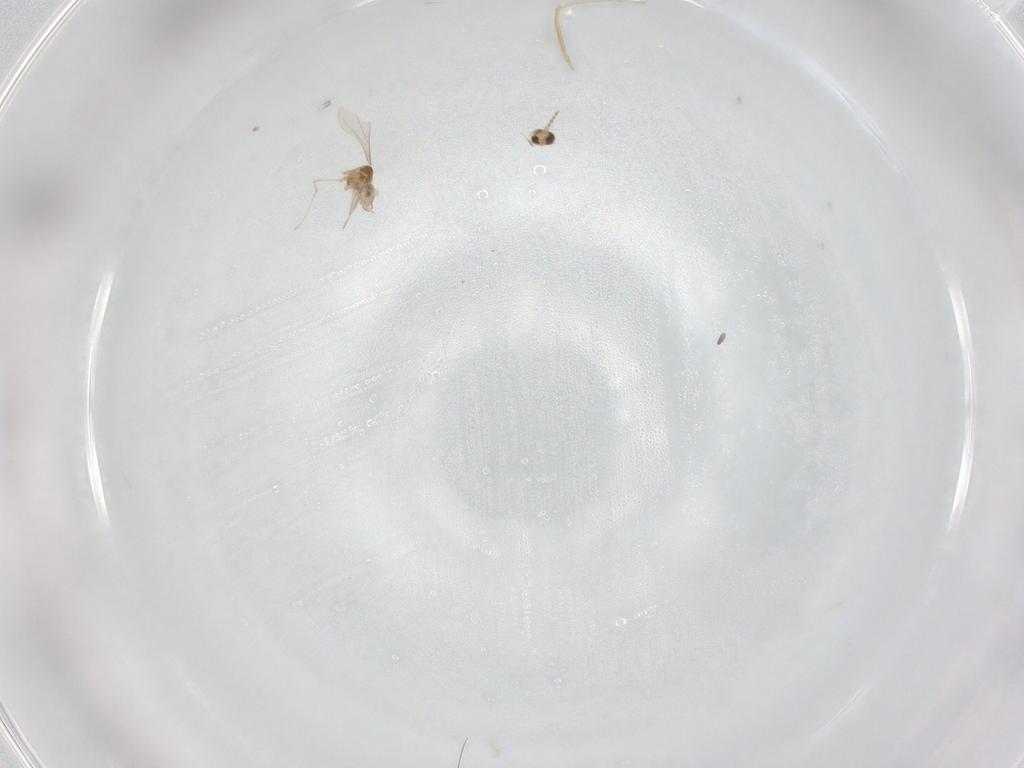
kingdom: Animalia
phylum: Arthropoda
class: Insecta
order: Diptera
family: Cecidomyiidae
